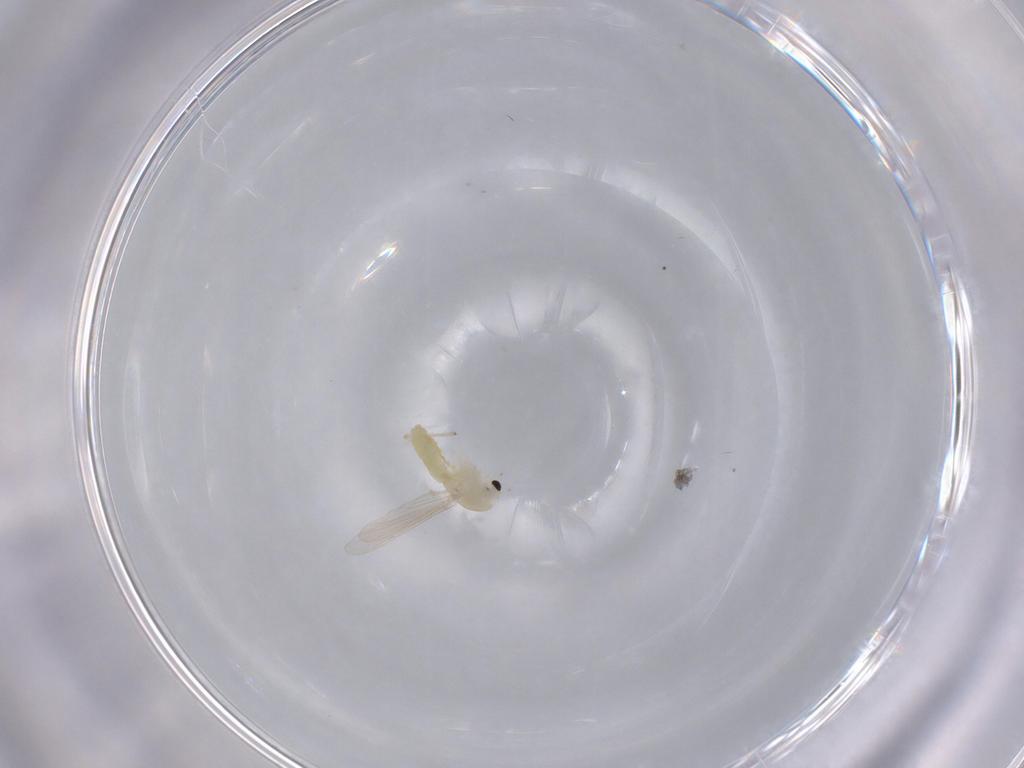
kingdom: Animalia
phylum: Arthropoda
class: Insecta
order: Diptera
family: Chironomidae
